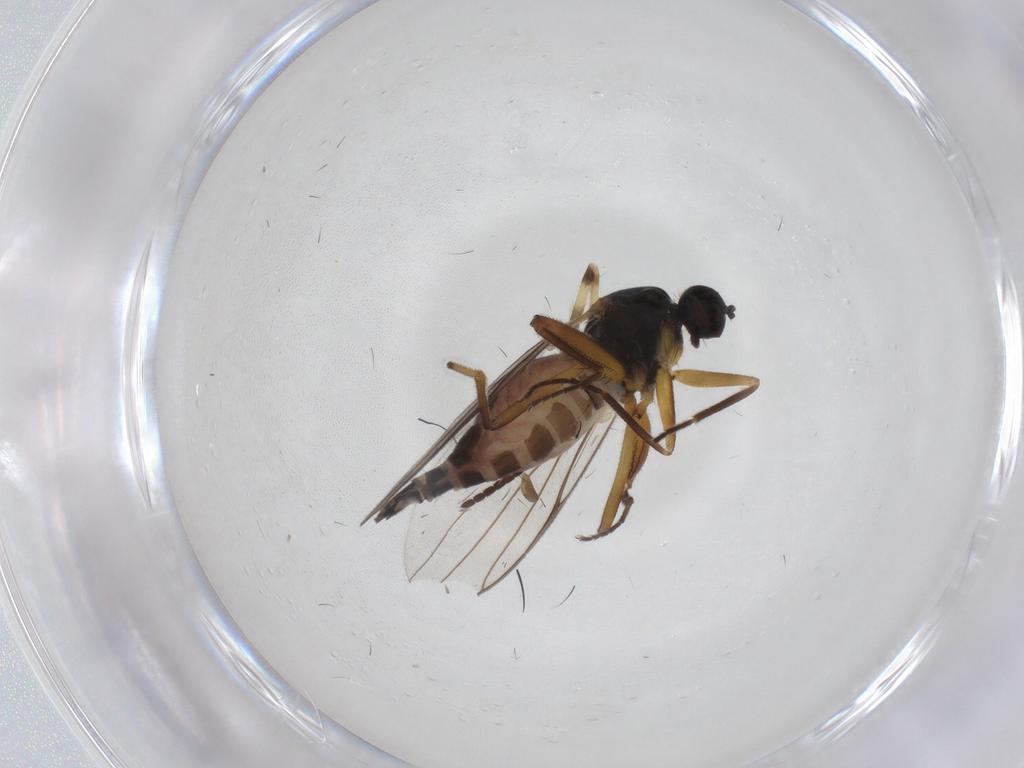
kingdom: Animalia
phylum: Arthropoda
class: Insecta
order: Diptera
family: Hybotidae
